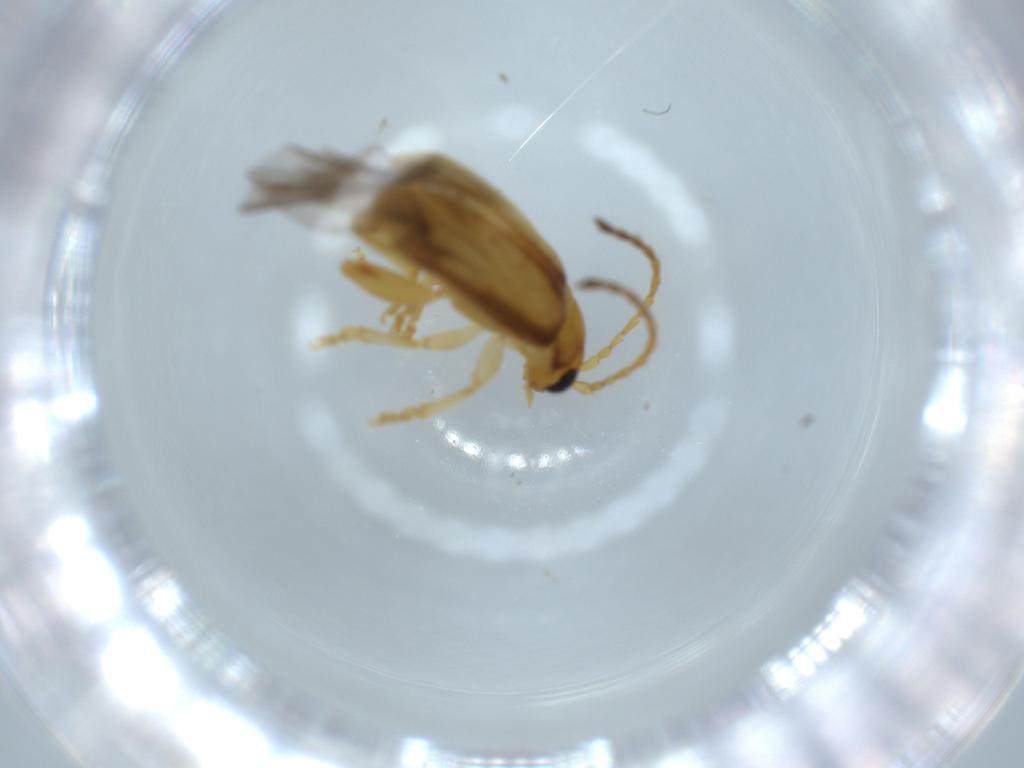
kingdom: Animalia
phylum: Arthropoda
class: Insecta
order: Coleoptera
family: Chrysomelidae
